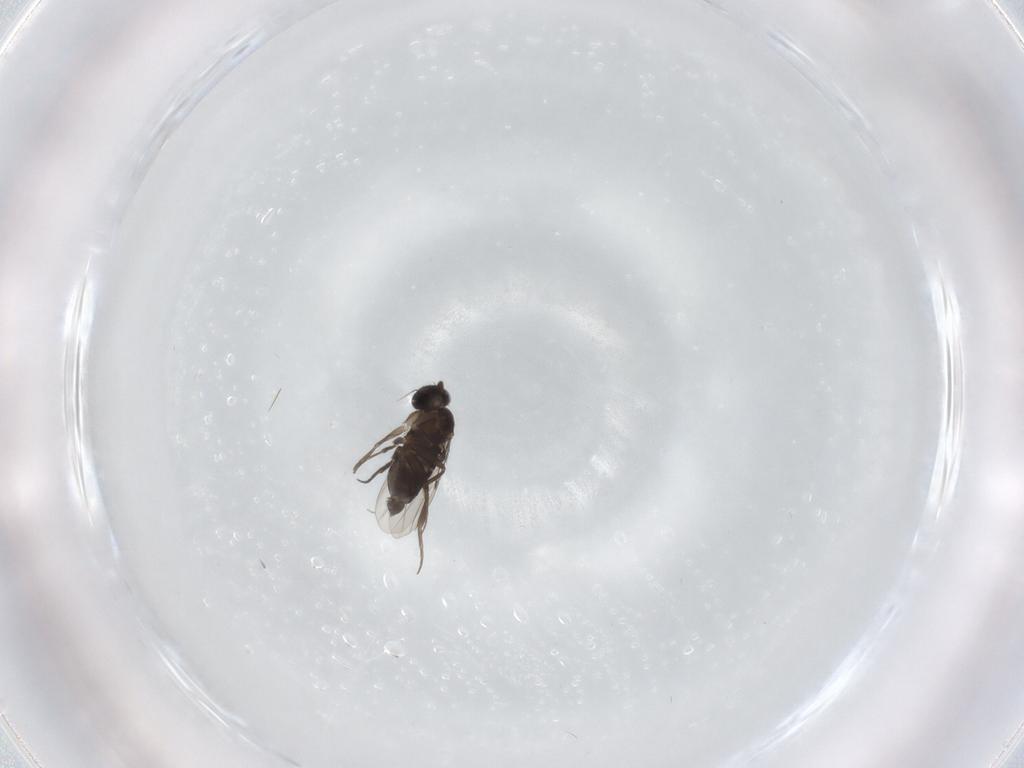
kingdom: Animalia
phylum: Arthropoda
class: Insecta
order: Diptera
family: Phoridae
